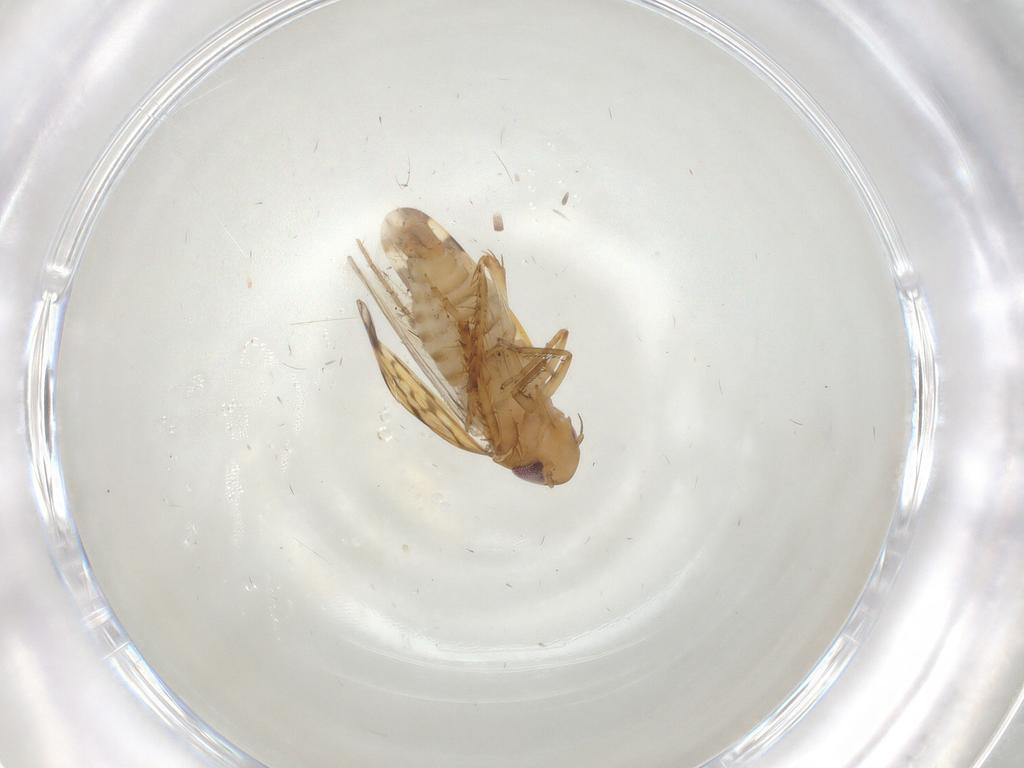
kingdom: Animalia
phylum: Arthropoda
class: Insecta
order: Hemiptera
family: Cicadellidae
